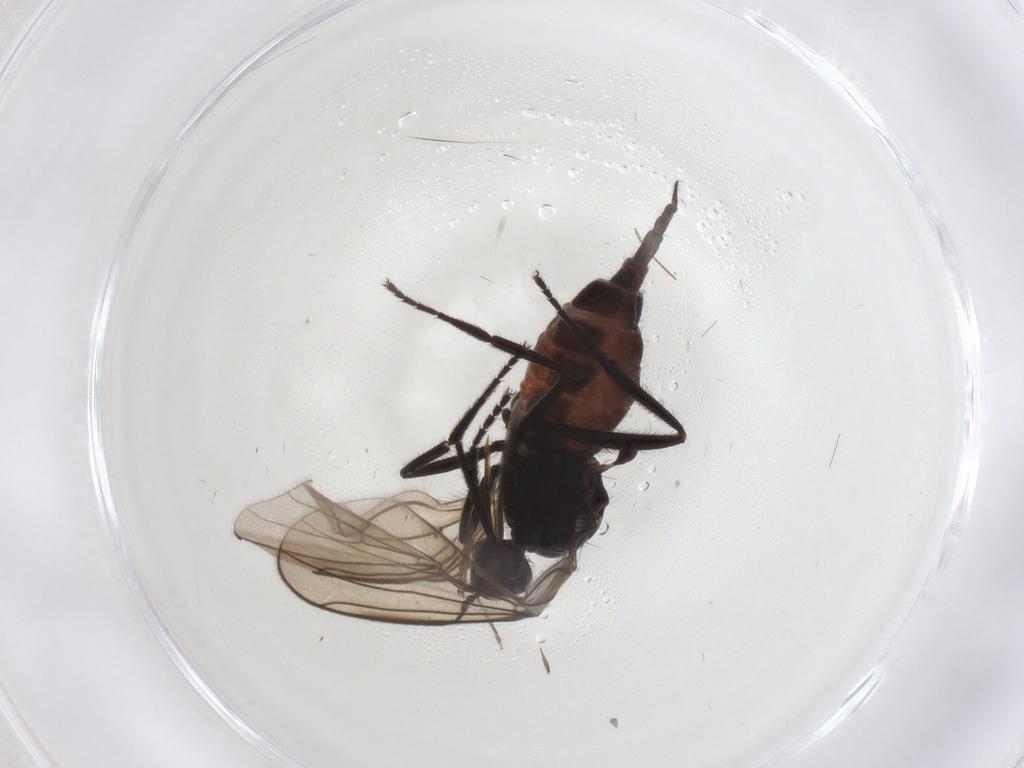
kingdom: Animalia
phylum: Arthropoda
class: Insecta
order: Diptera
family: Empididae
